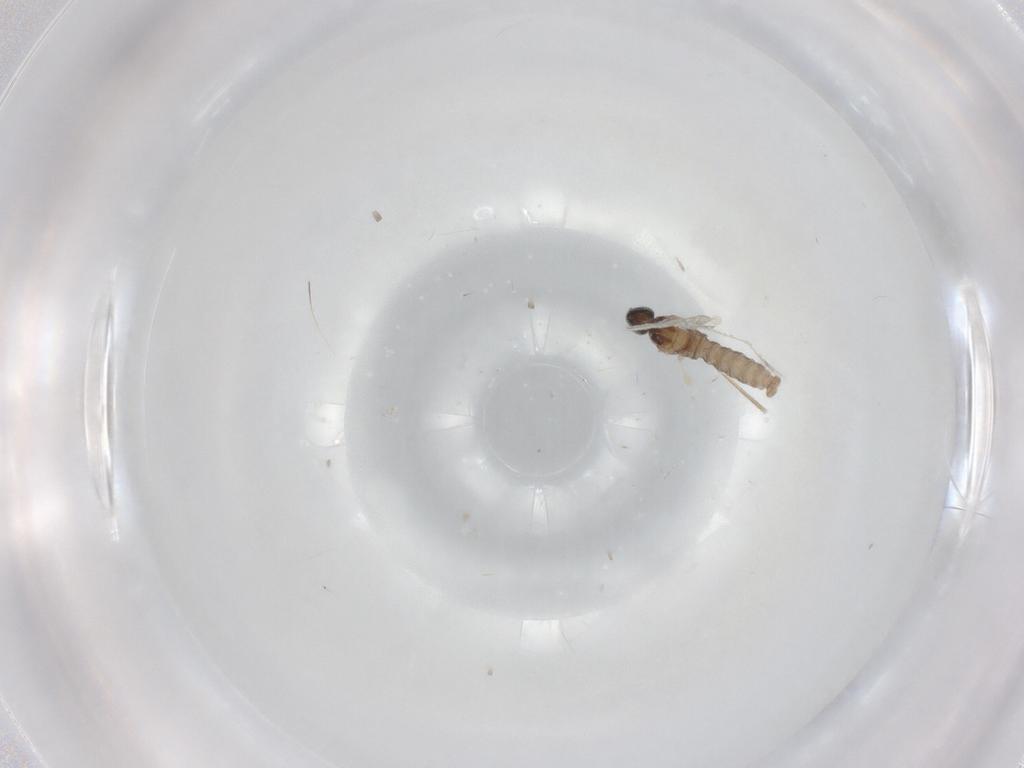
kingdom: Animalia
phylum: Arthropoda
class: Insecta
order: Diptera
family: Cecidomyiidae
